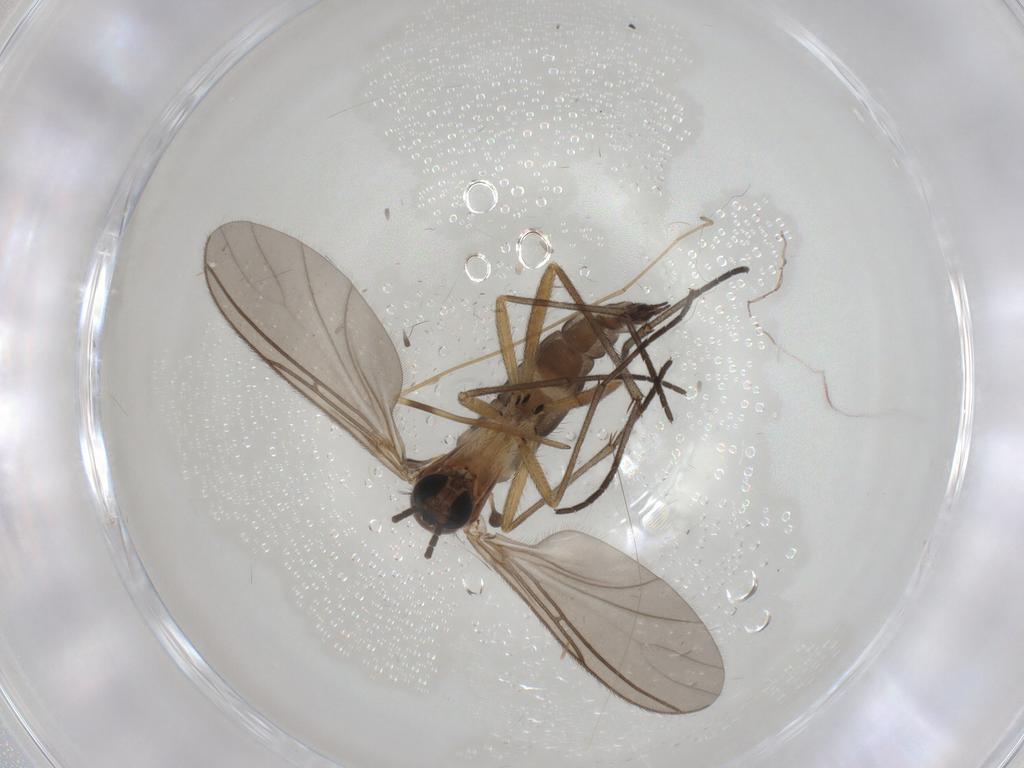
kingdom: Animalia
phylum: Arthropoda
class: Insecta
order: Diptera
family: Sciaridae
